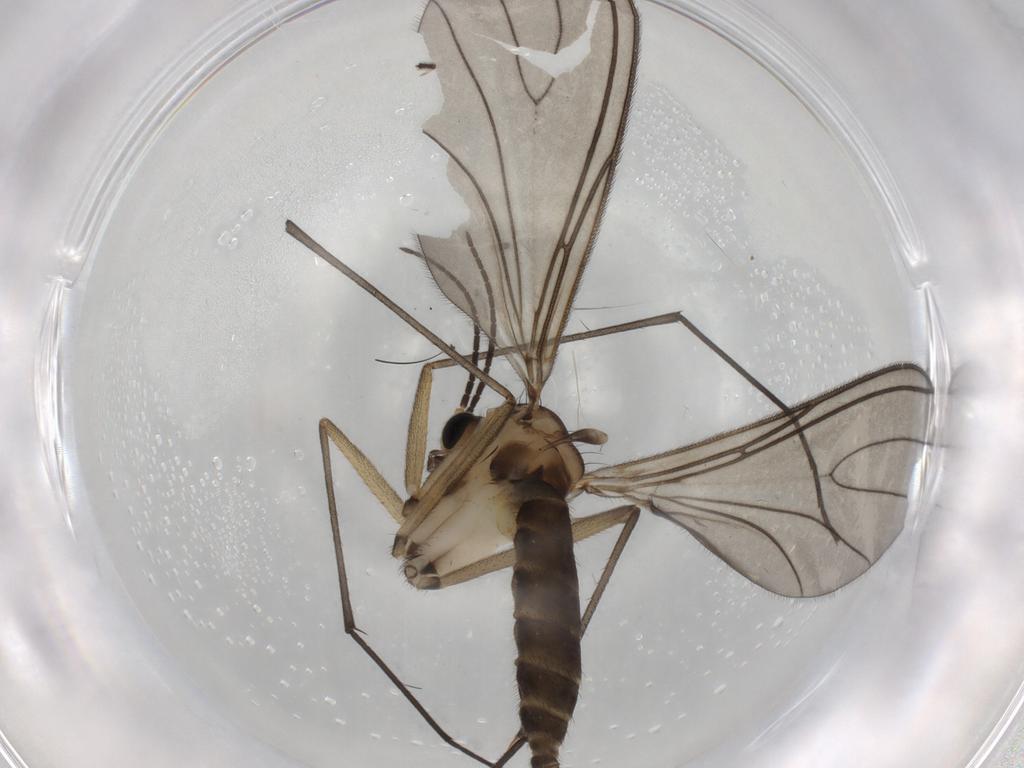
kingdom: Animalia
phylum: Arthropoda
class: Insecta
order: Diptera
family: Sciaridae
